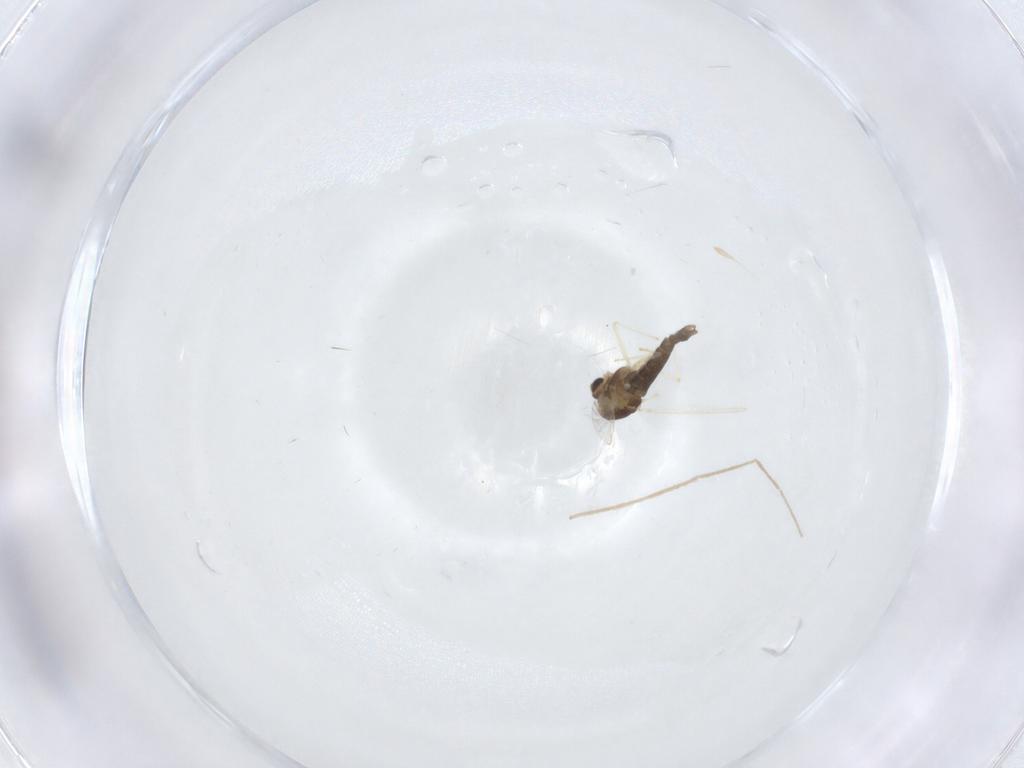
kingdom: Animalia
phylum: Arthropoda
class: Insecta
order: Diptera
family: Chironomidae
